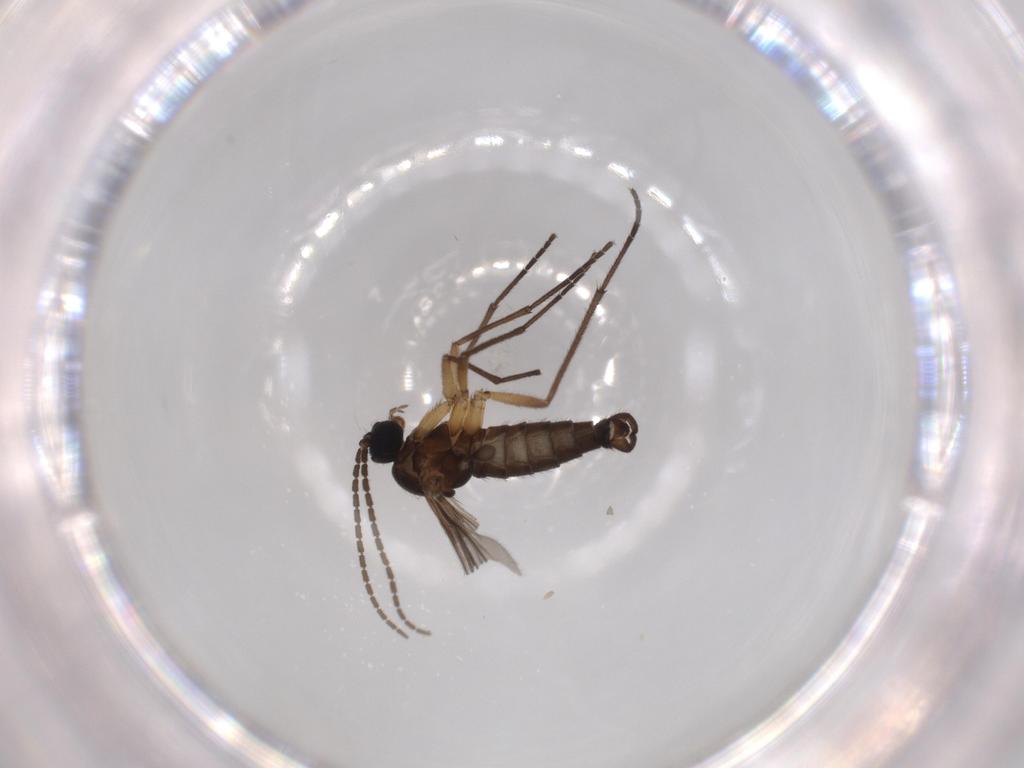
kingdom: Animalia
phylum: Arthropoda
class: Insecta
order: Diptera
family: Sciaridae
